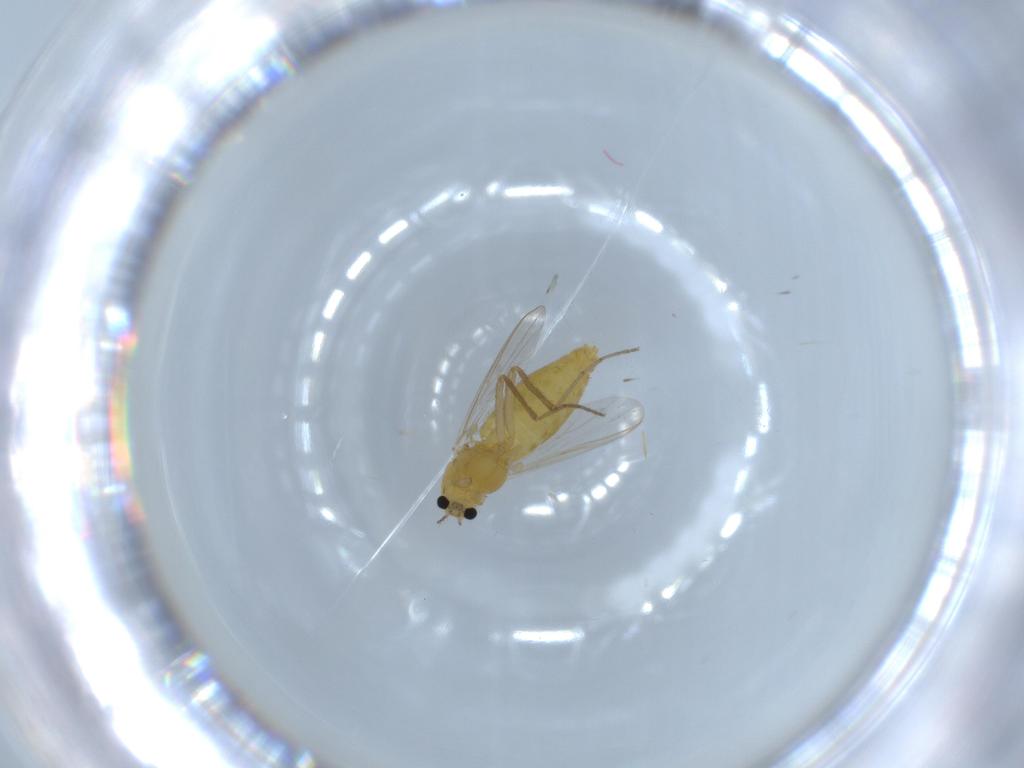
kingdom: Animalia
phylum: Arthropoda
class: Insecta
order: Diptera
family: Chironomidae
